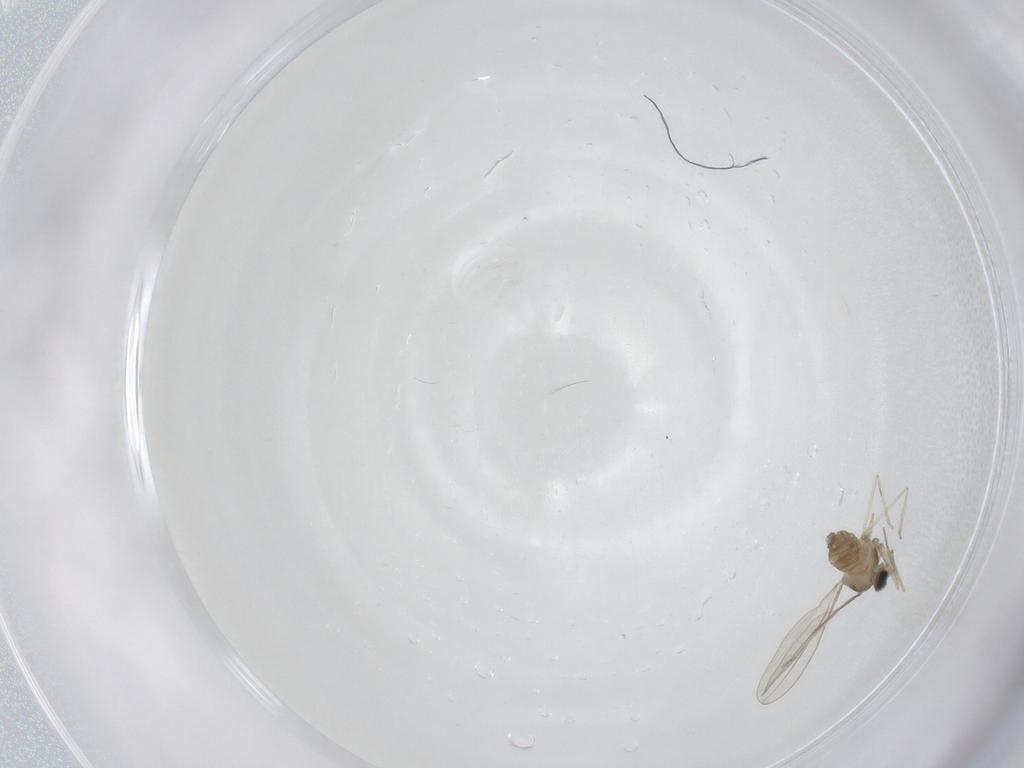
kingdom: Animalia
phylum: Arthropoda
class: Insecta
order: Diptera
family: Cecidomyiidae
